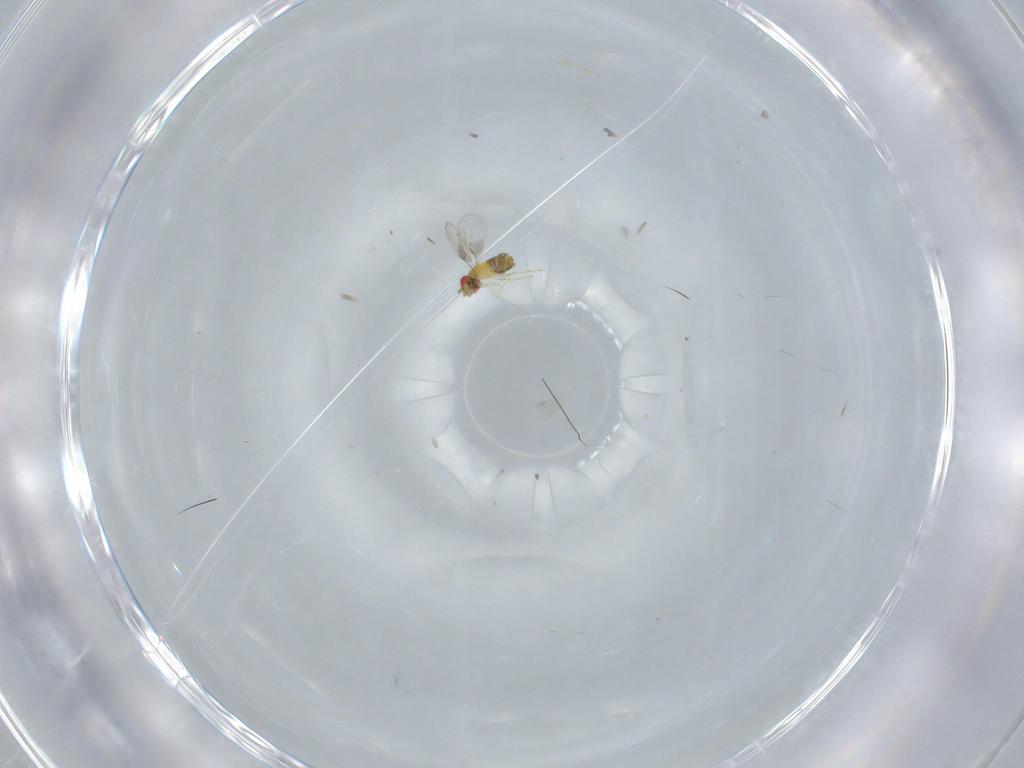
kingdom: Animalia
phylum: Arthropoda
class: Insecta
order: Hymenoptera
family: Trichogrammatidae
